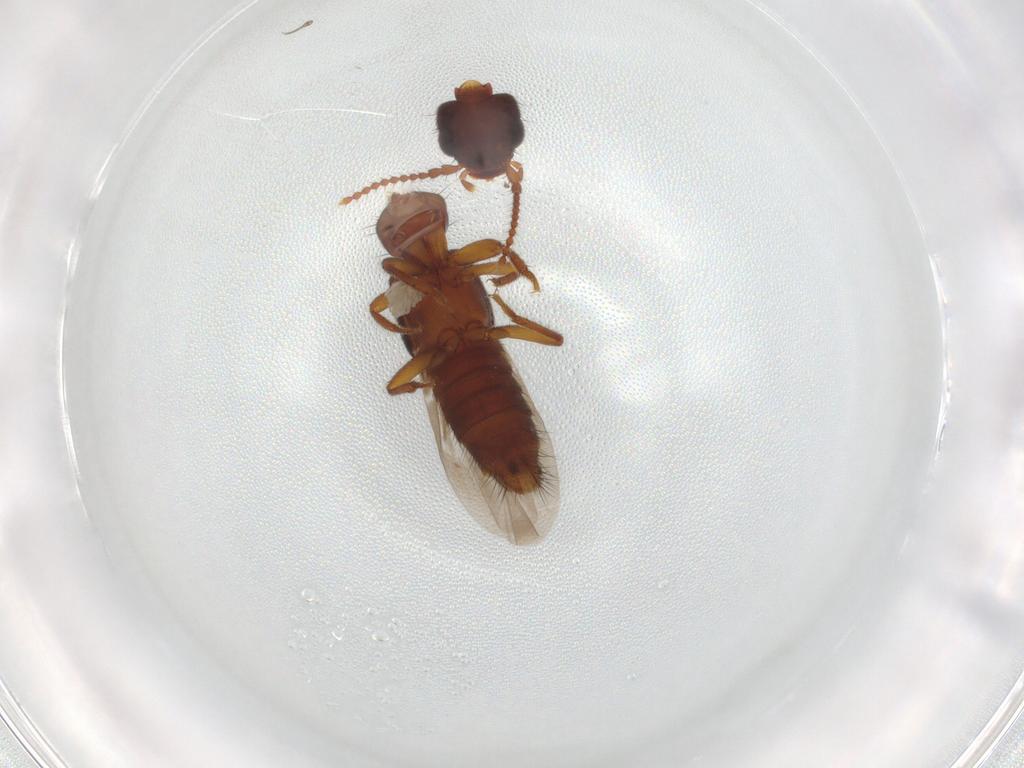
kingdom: Animalia
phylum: Arthropoda
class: Insecta
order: Coleoptera
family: Staphylinidae
